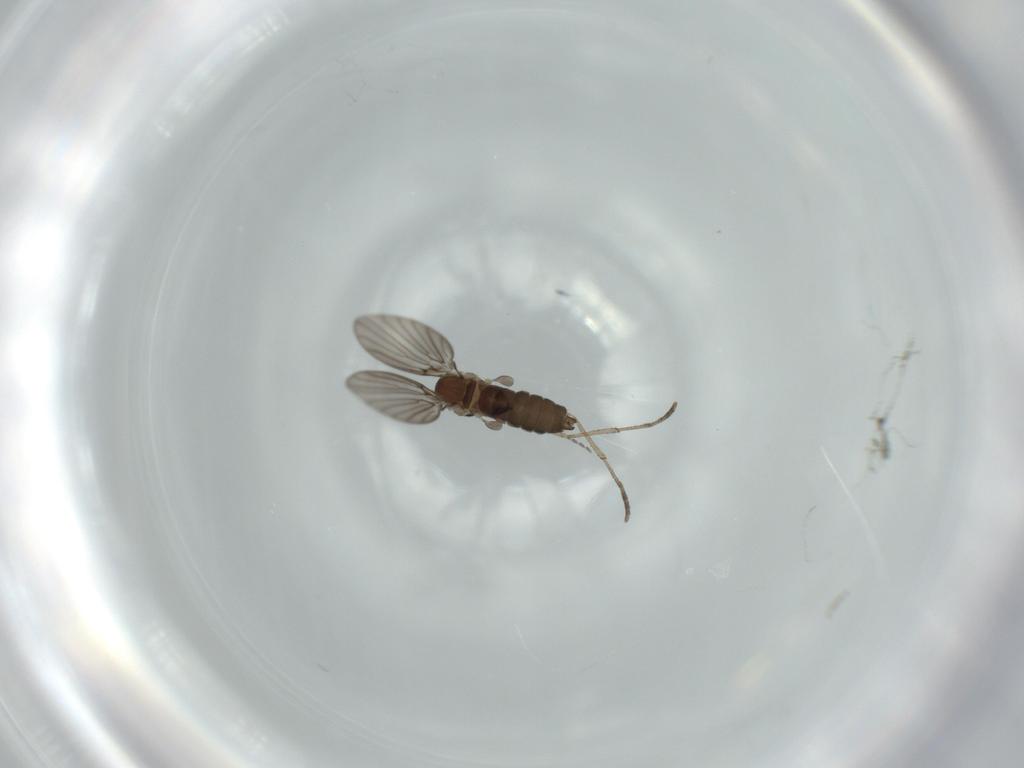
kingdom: Animalia
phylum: Arthropoda
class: Insecta
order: Diptera
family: Psychodidae
